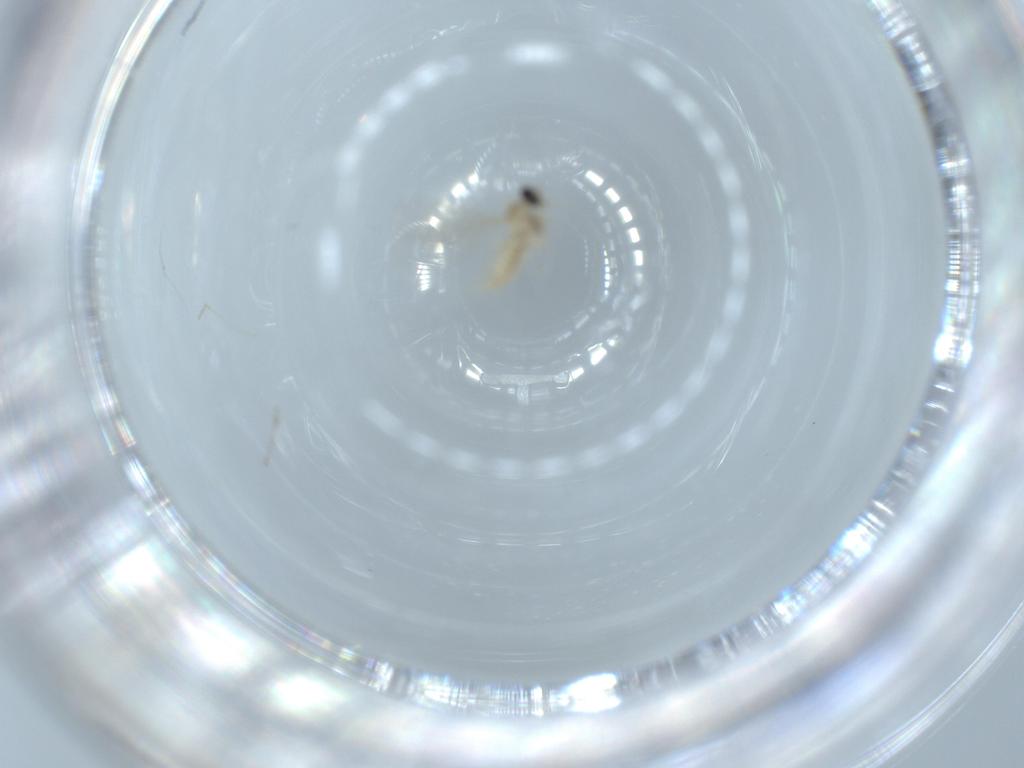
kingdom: Animalia
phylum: Arthropoda
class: Insecta
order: Diptera
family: Cecidomyiidae
